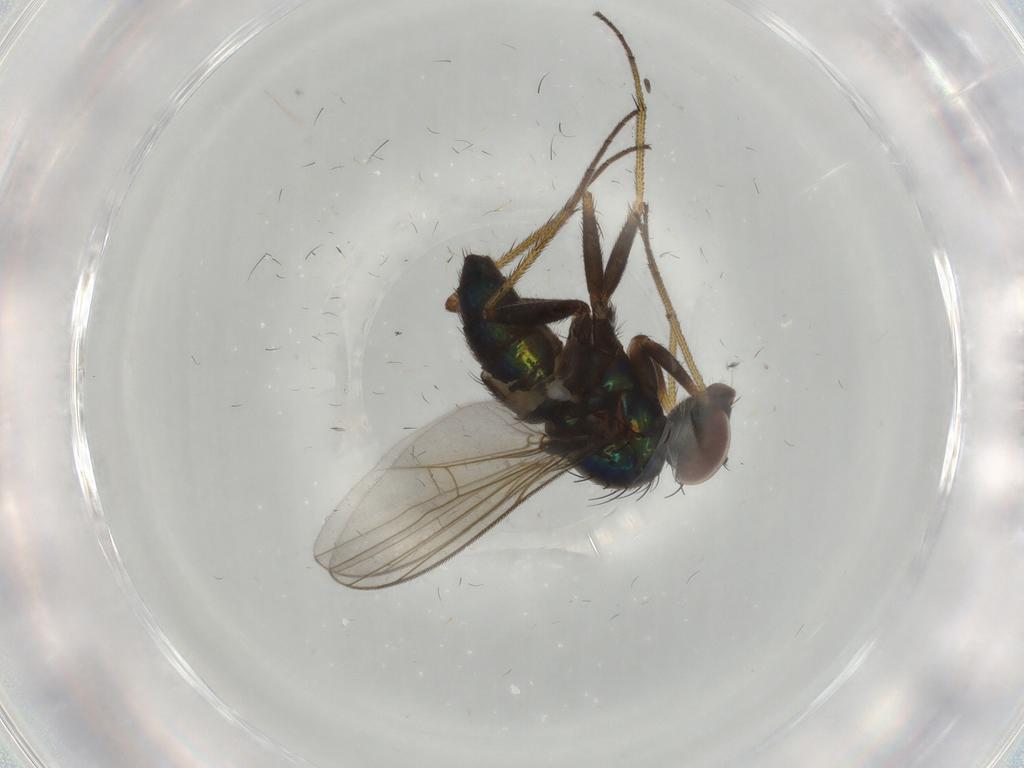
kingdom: Animalia
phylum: Arthropoda
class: Insecta
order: Diptera
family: Dolichopodidae
